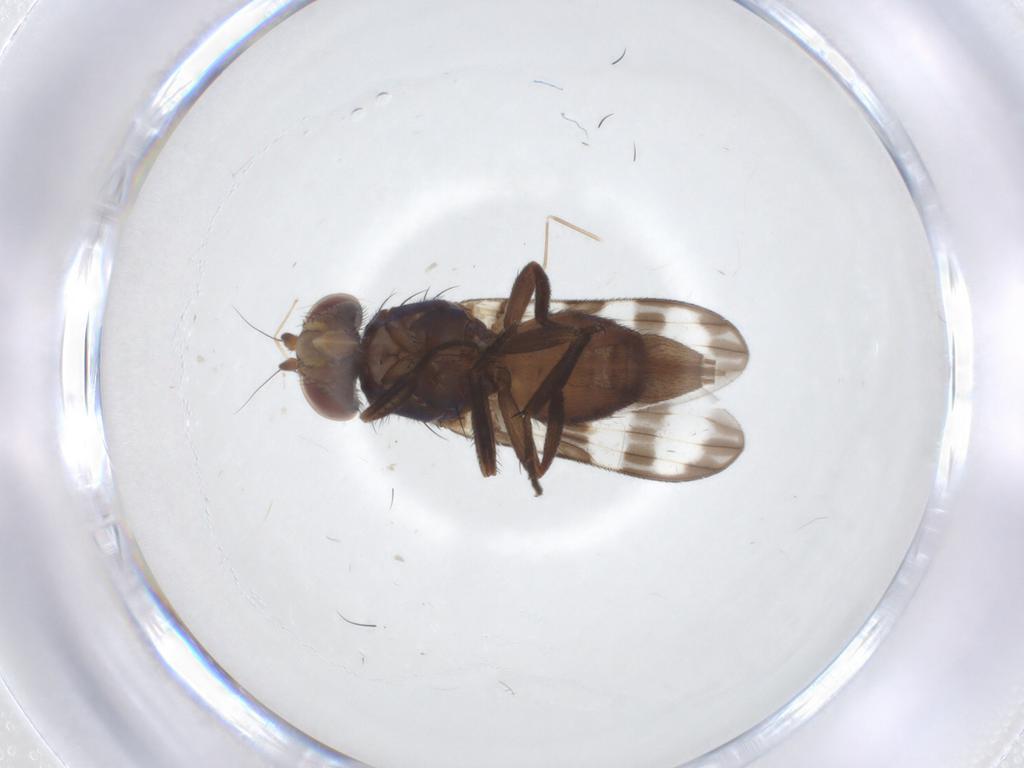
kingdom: Animalia
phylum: Arthropoda
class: Insecta
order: Diptera
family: Chironomidae
